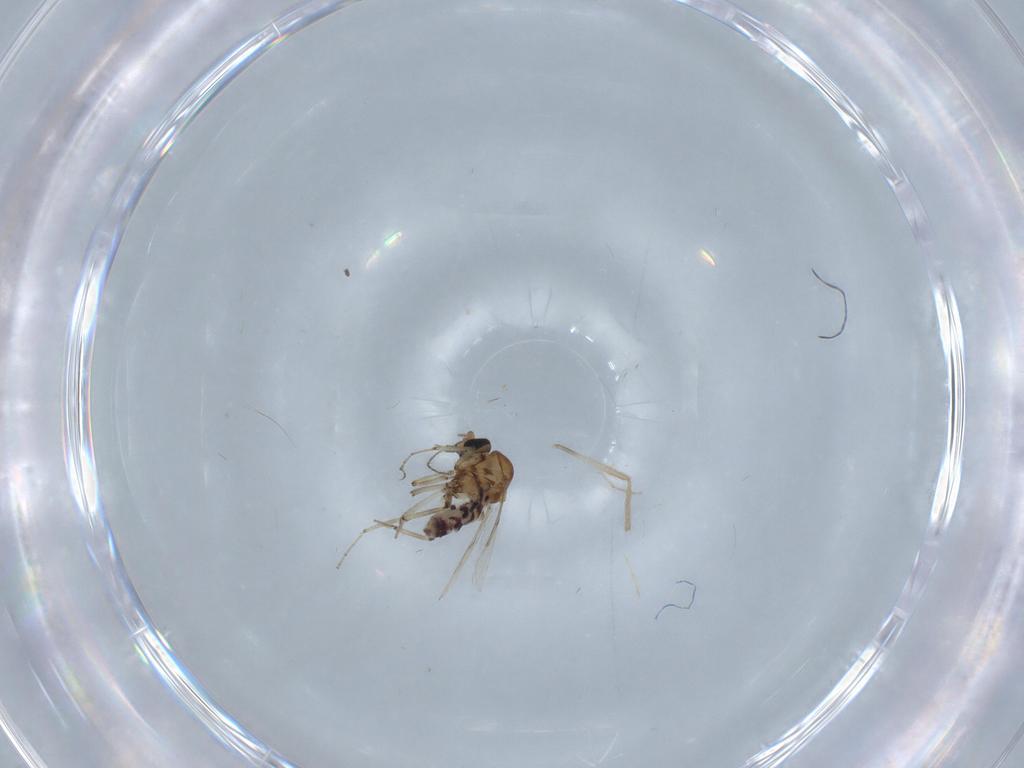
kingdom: Animalia
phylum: Arthropoda
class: Insecta
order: Diptera
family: Ceratopogonidae
